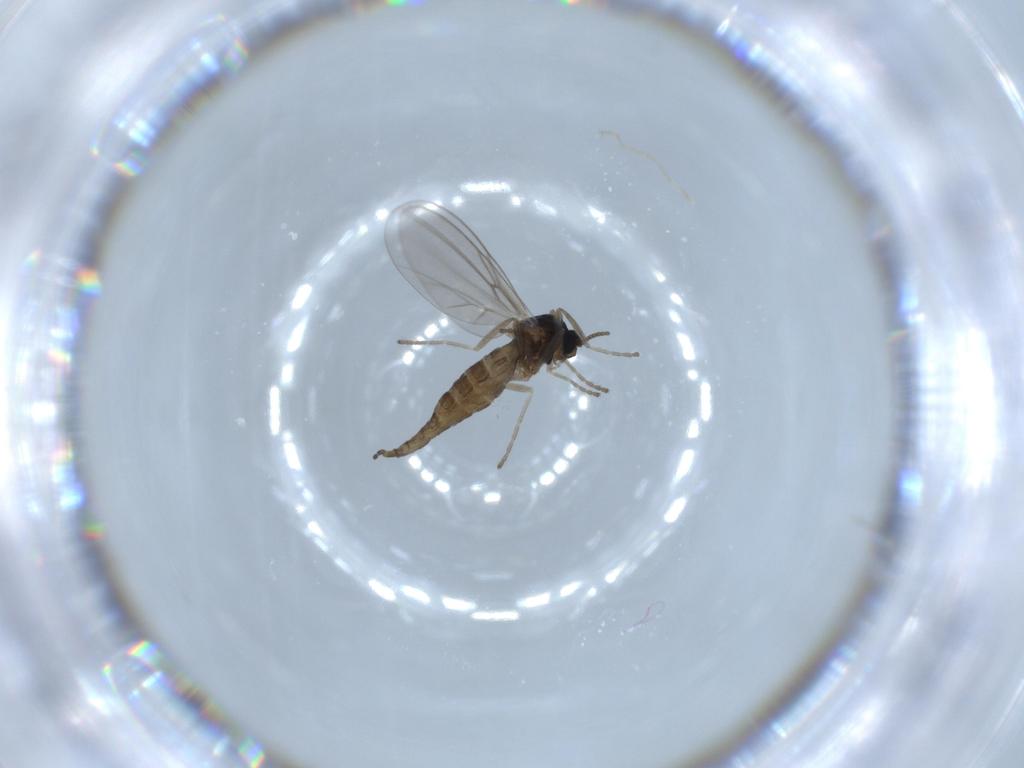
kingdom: Animalia
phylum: Arthropoda
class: Insecta
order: Diptera
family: Cecidomyiidae
